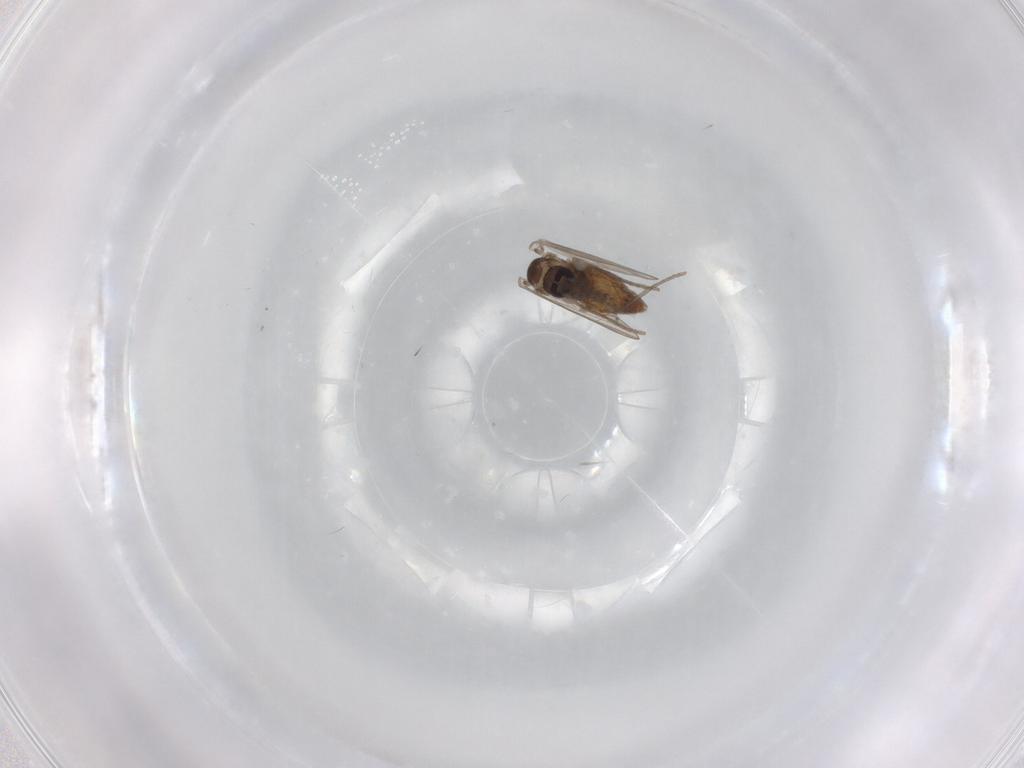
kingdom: Animalia
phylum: Arthropoda
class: Insecta
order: Diptera
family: Psychodidae
